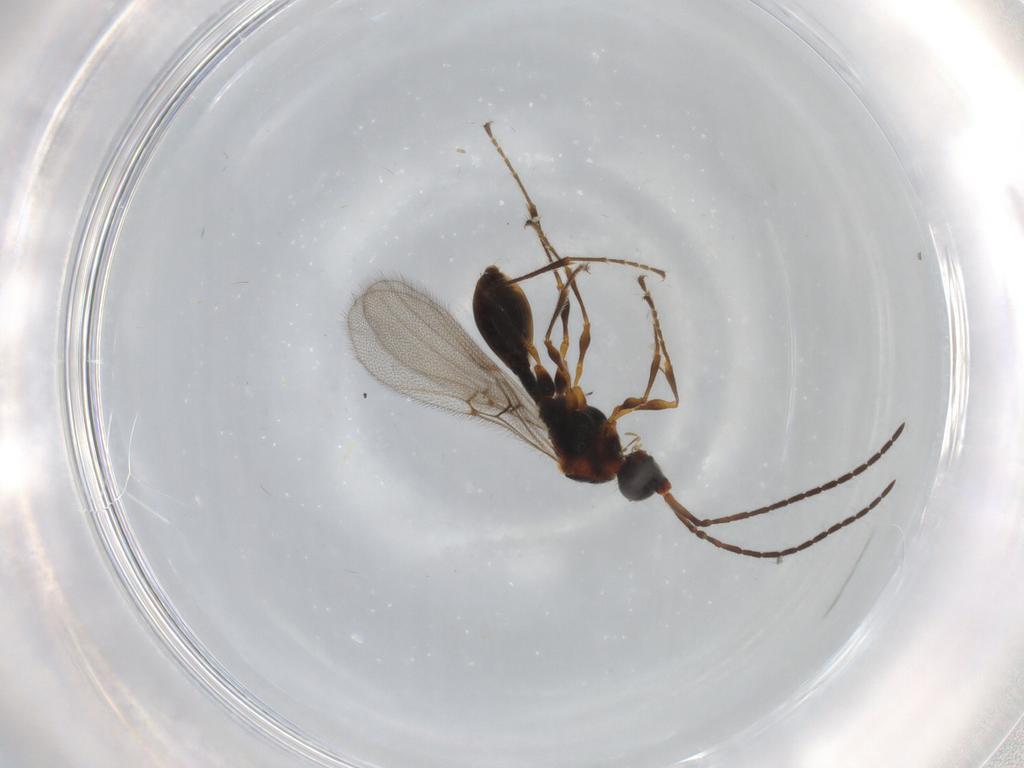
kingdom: Animalia
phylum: Arthropoda
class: Insecta
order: Hymenoptera
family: Diapriidae
